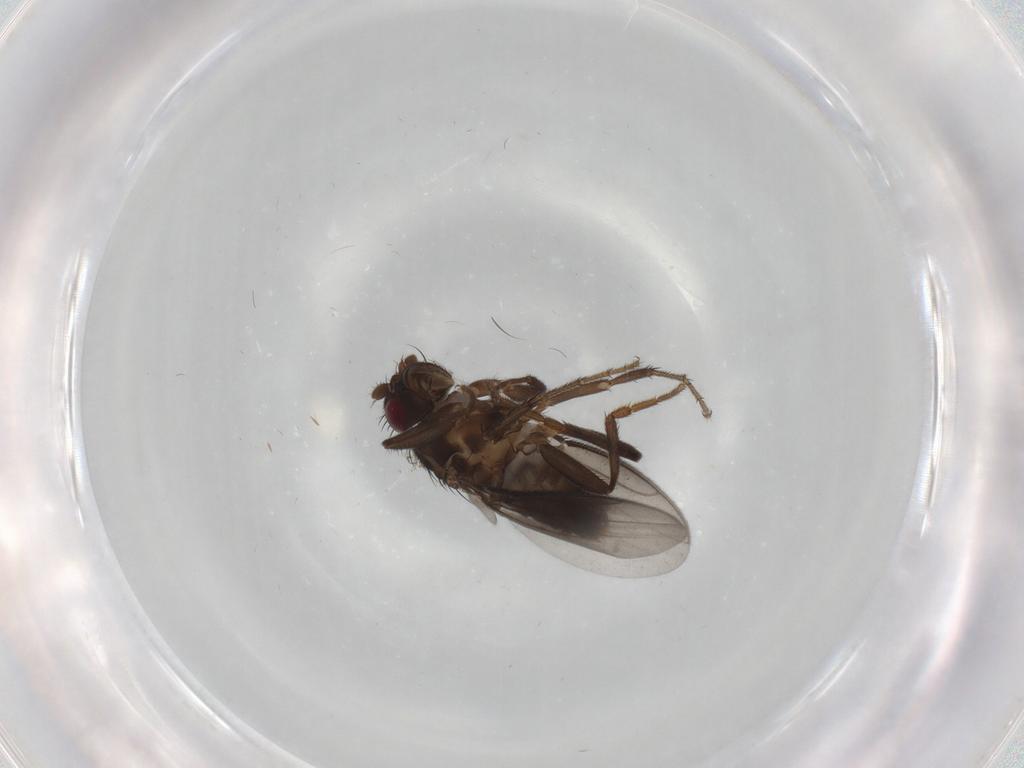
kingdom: Animalia
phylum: Arthropoda
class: Insecta
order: Diptera
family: Sphaeroceridae
